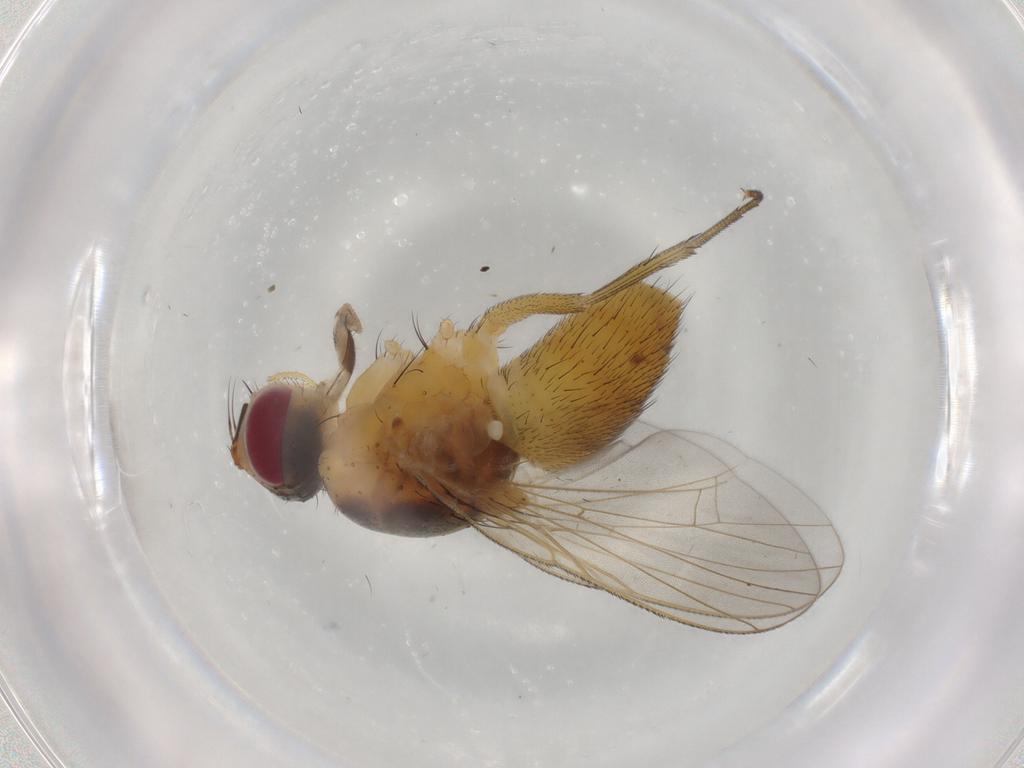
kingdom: Animalia
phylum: Arthropoda
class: Insecta
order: Diptera
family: Muscidae
